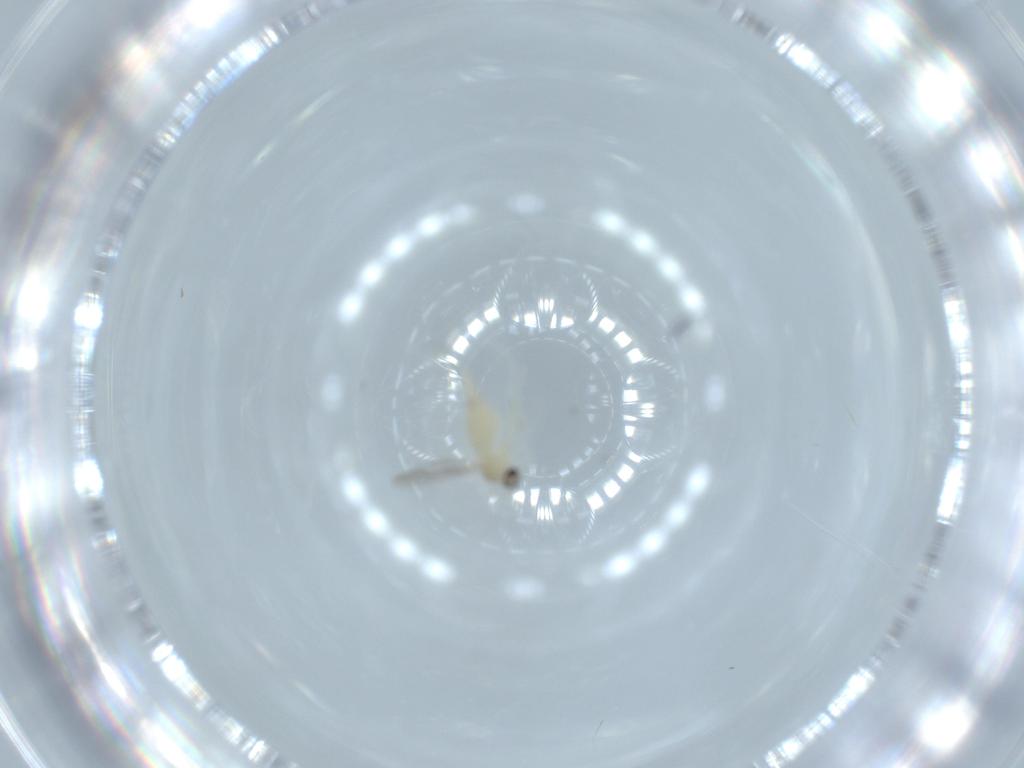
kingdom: Animalia
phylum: Arthropoda
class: Insecta
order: Diptera
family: Cecidomyiidae
